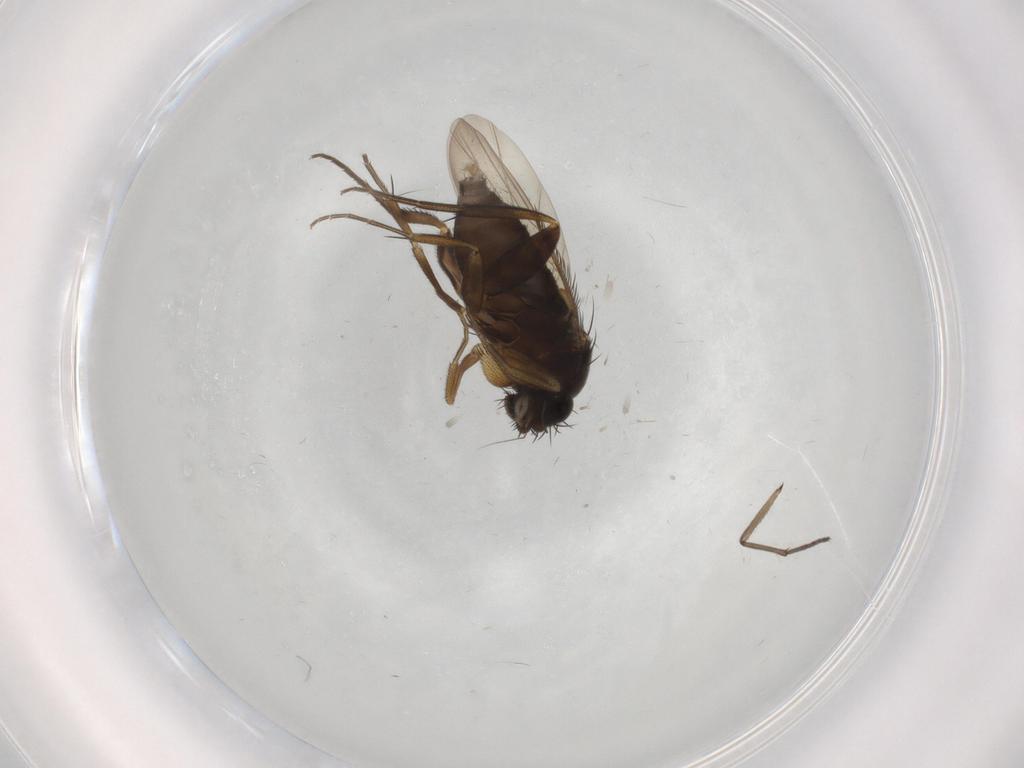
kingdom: Animalia
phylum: Arthropoda
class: Insecta
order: Diptera
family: Phoridae
